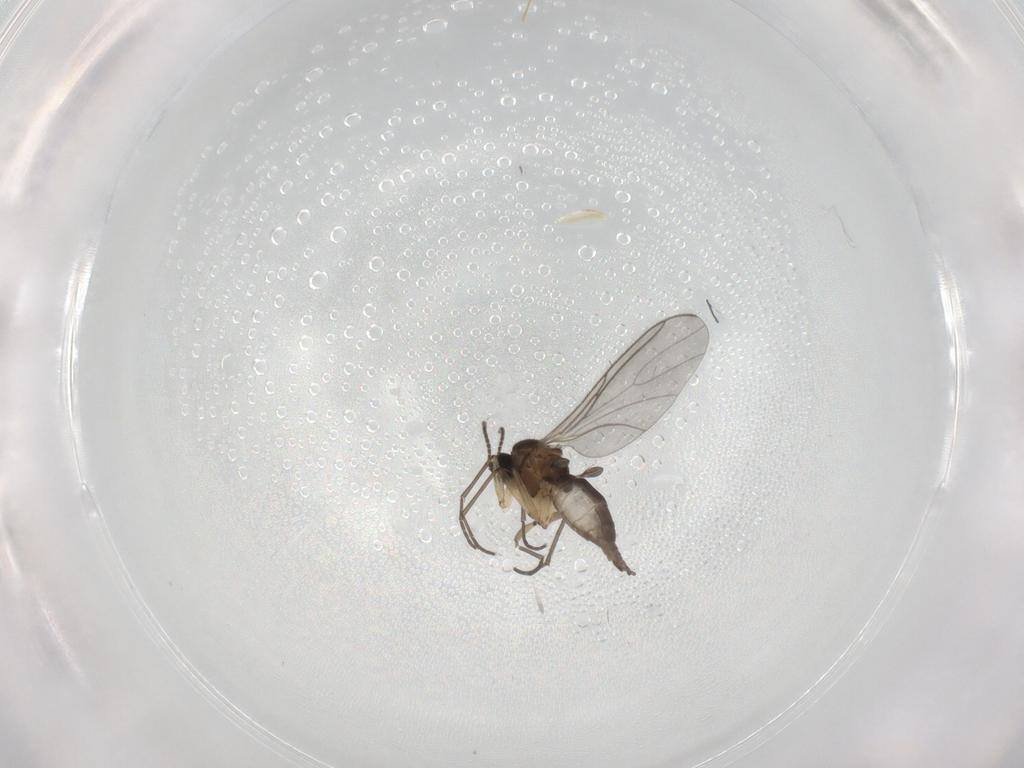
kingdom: Animalia
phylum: Arthropoda
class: Insecta
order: Diptera
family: Sciaridae
